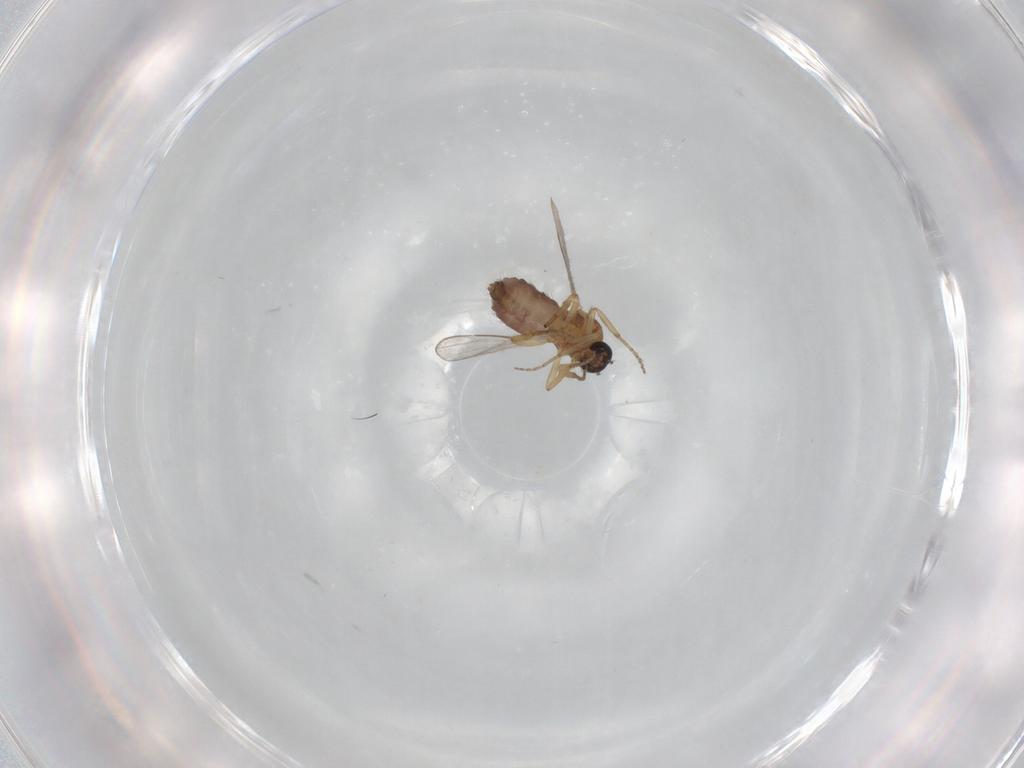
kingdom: Animalia
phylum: Arthropoda
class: Insecta
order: Diptera
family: Ceratopogonidae
